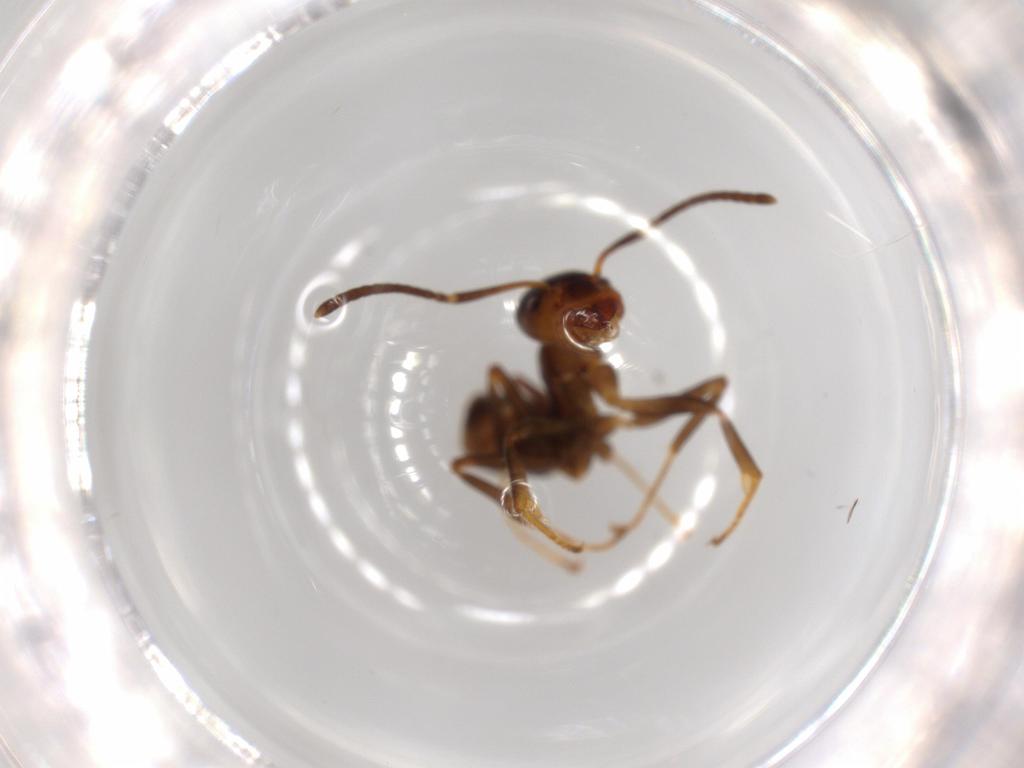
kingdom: Animalia
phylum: Arthropoda
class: Insecta
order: Hymenoptera
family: Formicidae
